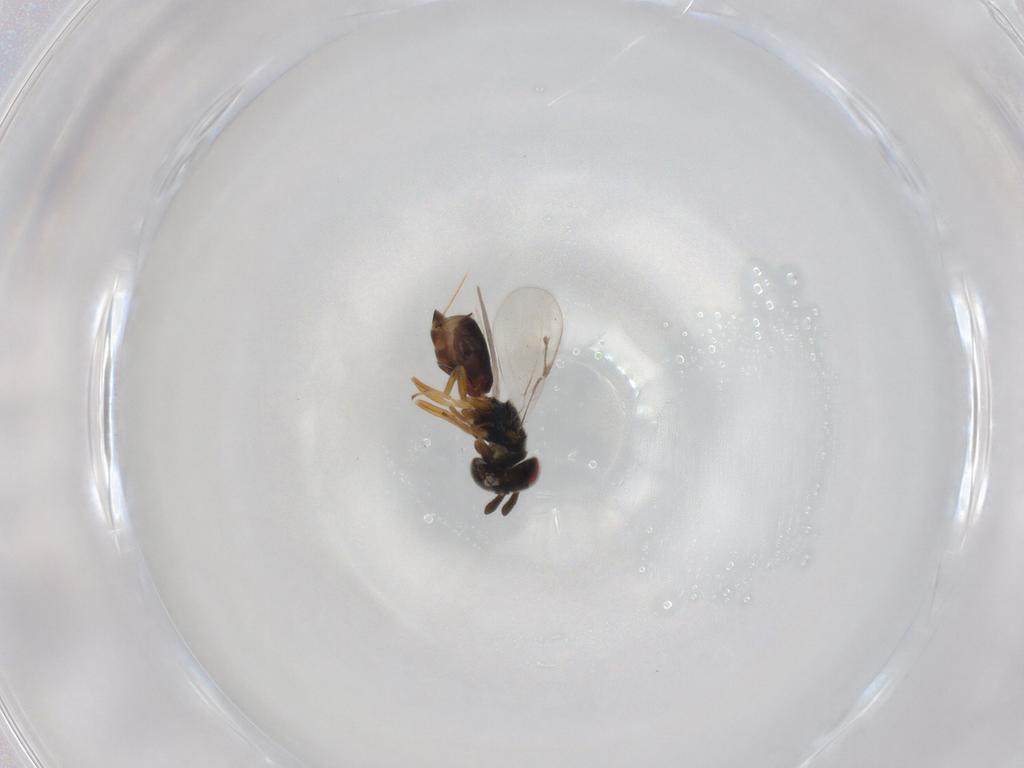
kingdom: Animalia
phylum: Arthropoda
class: Insecta
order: Hymenoptera
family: Pteromalidae
